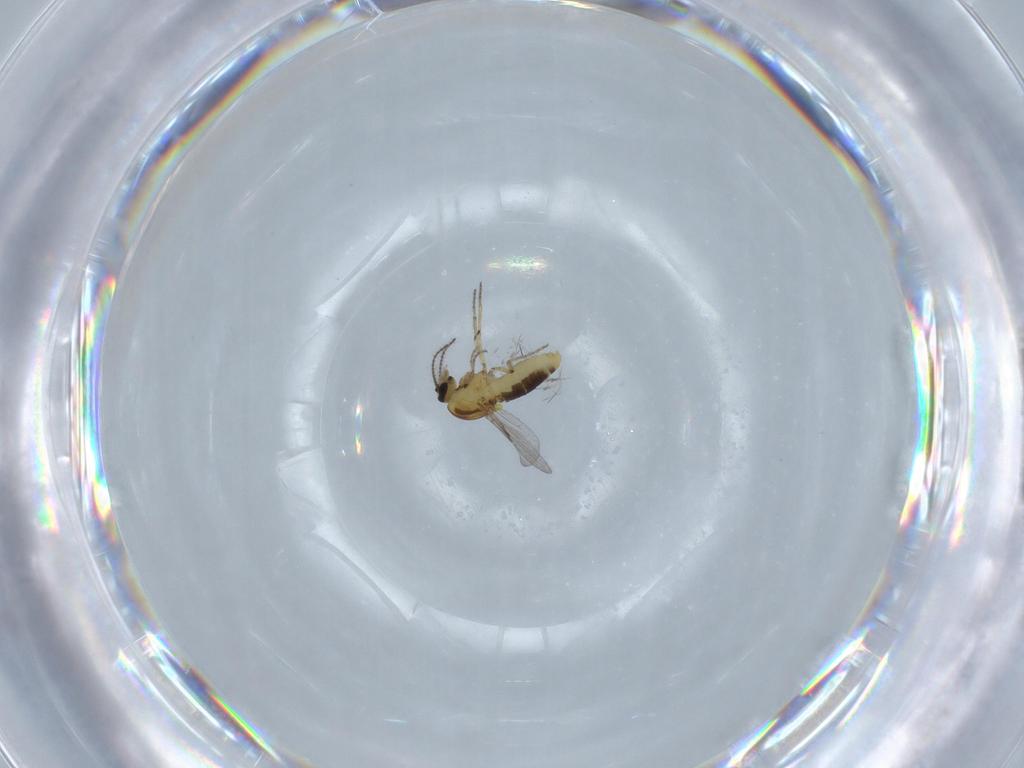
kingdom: Animalia
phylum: Arthropoda
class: Insecta
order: Diptera
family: Ceratopogonidae
